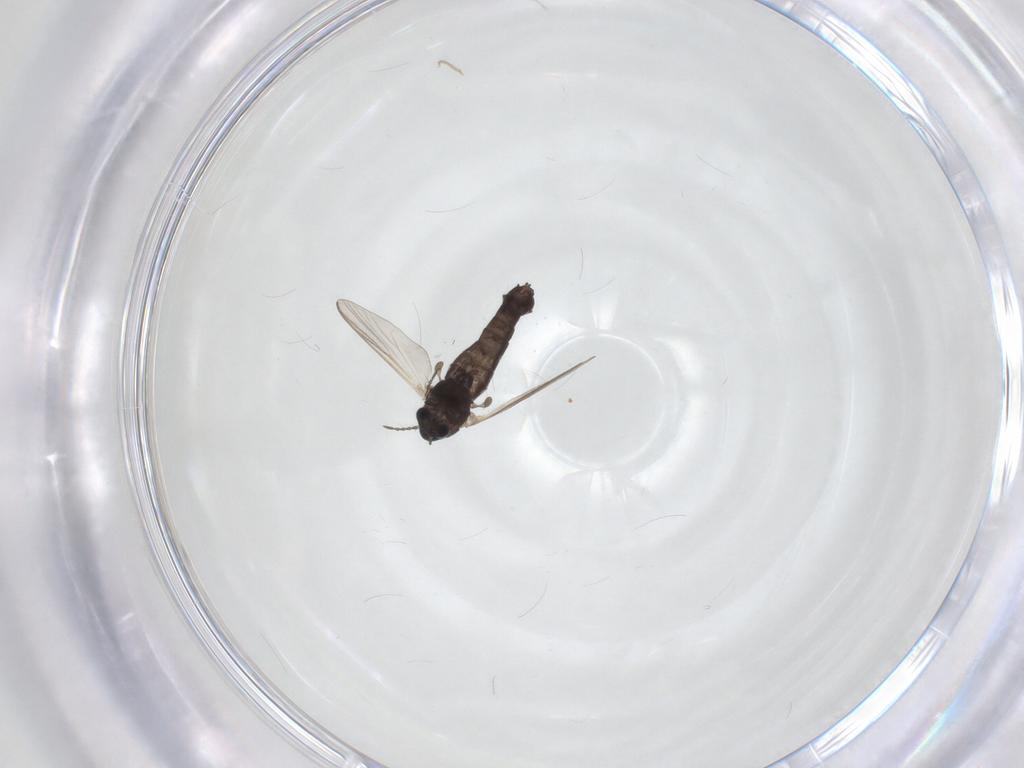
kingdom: Animalia
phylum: Arthropoda
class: Insecta
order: Diptera
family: Chironomidae
